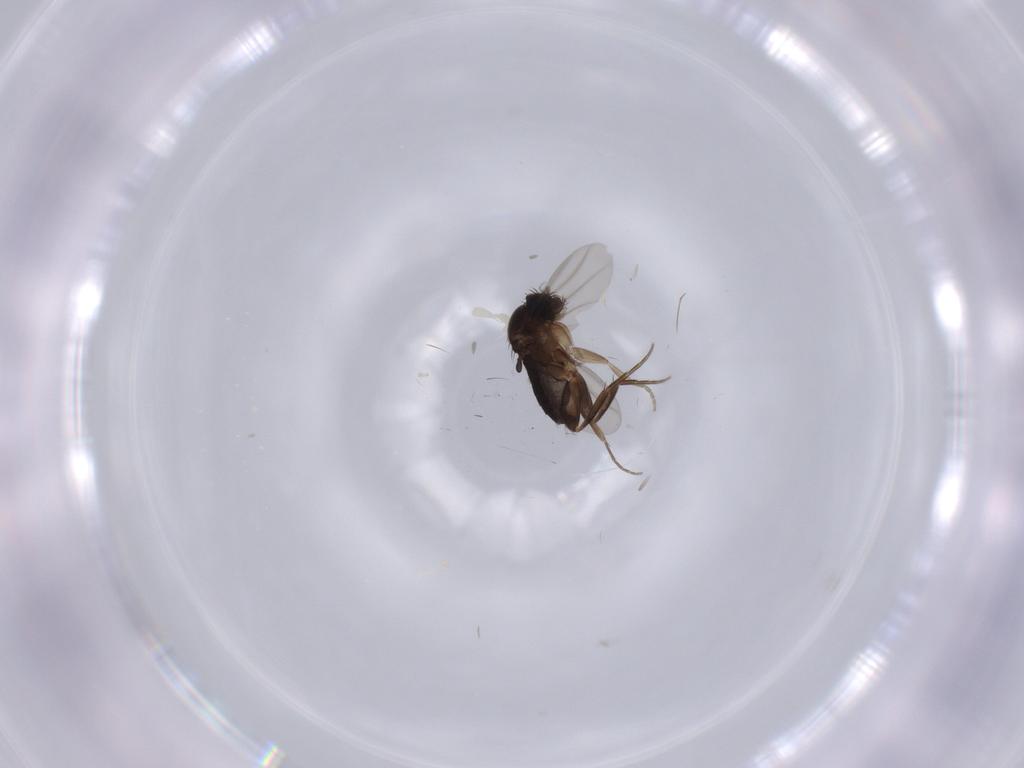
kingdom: Animalia
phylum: Arthropoda
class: Insecta
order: Diptera
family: Phoridae
